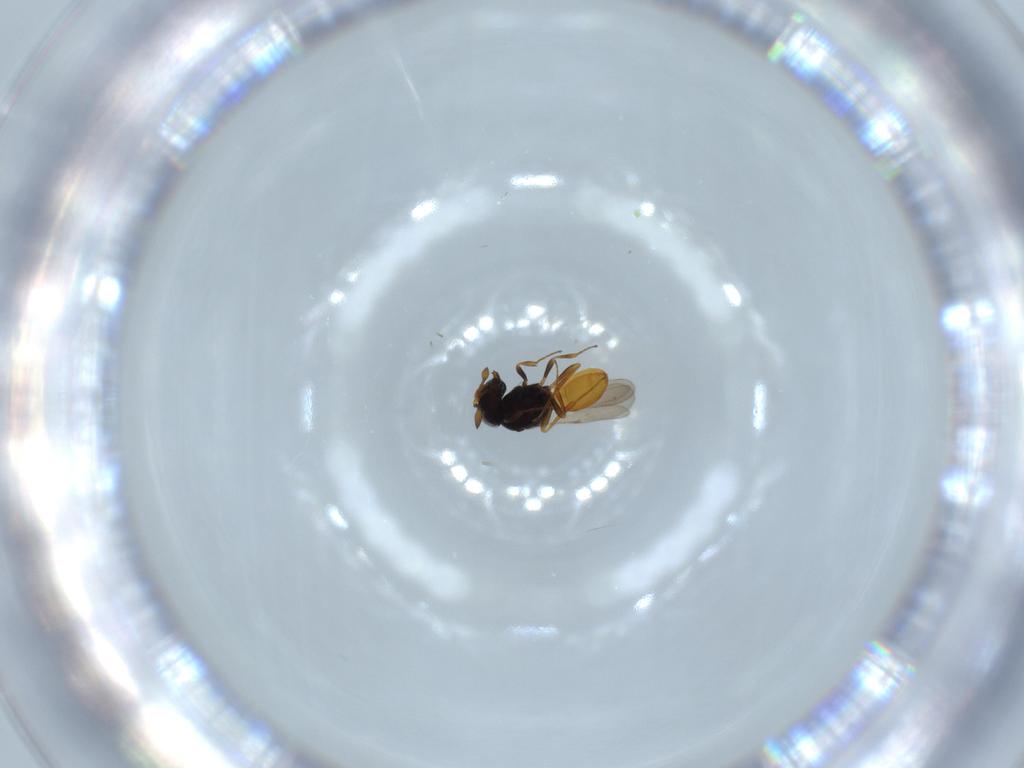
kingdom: Animalia
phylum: Arthropoda
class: Insecta
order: Hymenoptera
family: Scelionidae
